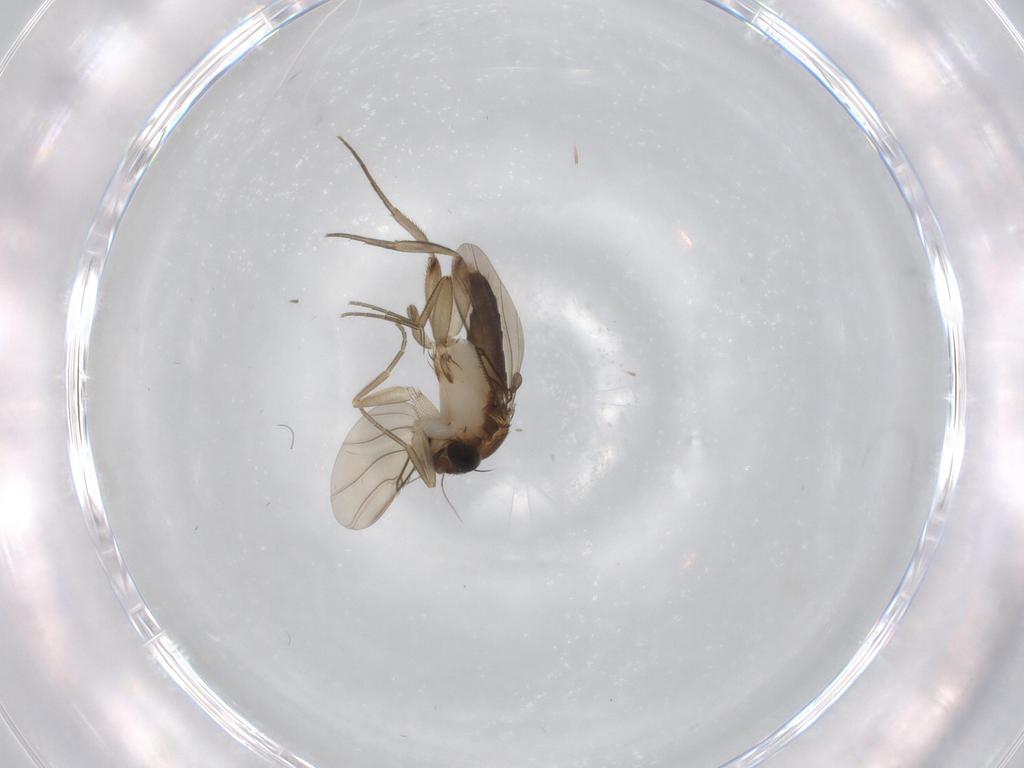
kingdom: Animalia
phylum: Arthropoda
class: Insecta
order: Diptera
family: Phoridae
